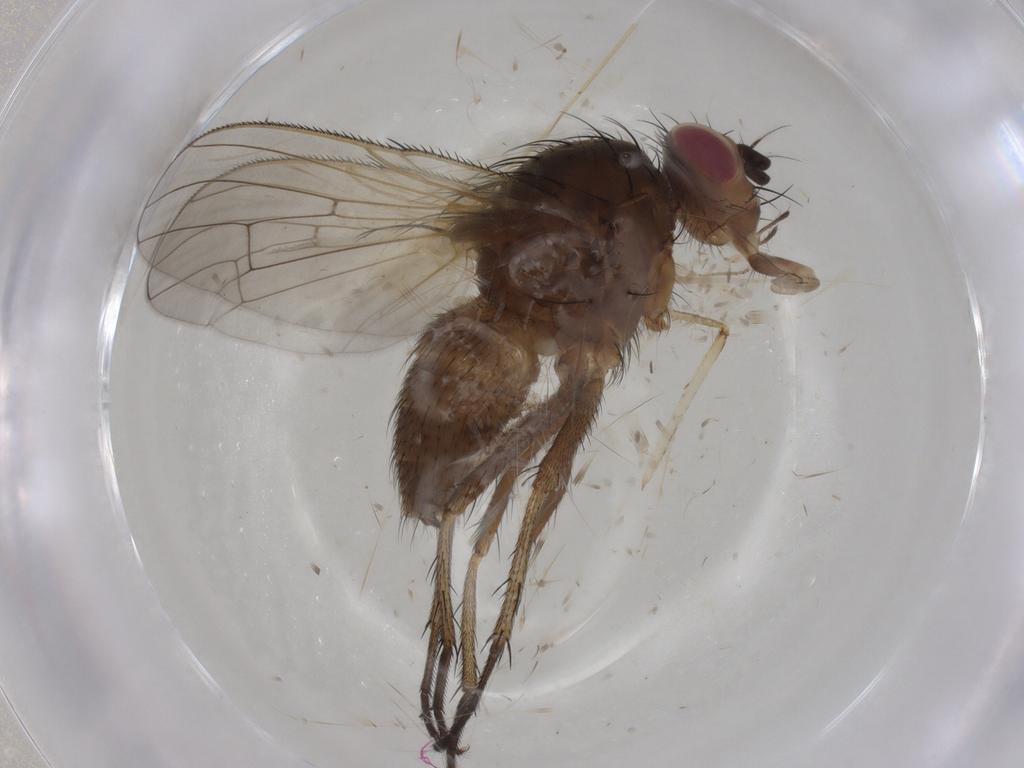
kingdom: Animalia
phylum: Arthropoda
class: Insecta
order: Diptera
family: Anthomyiidae
